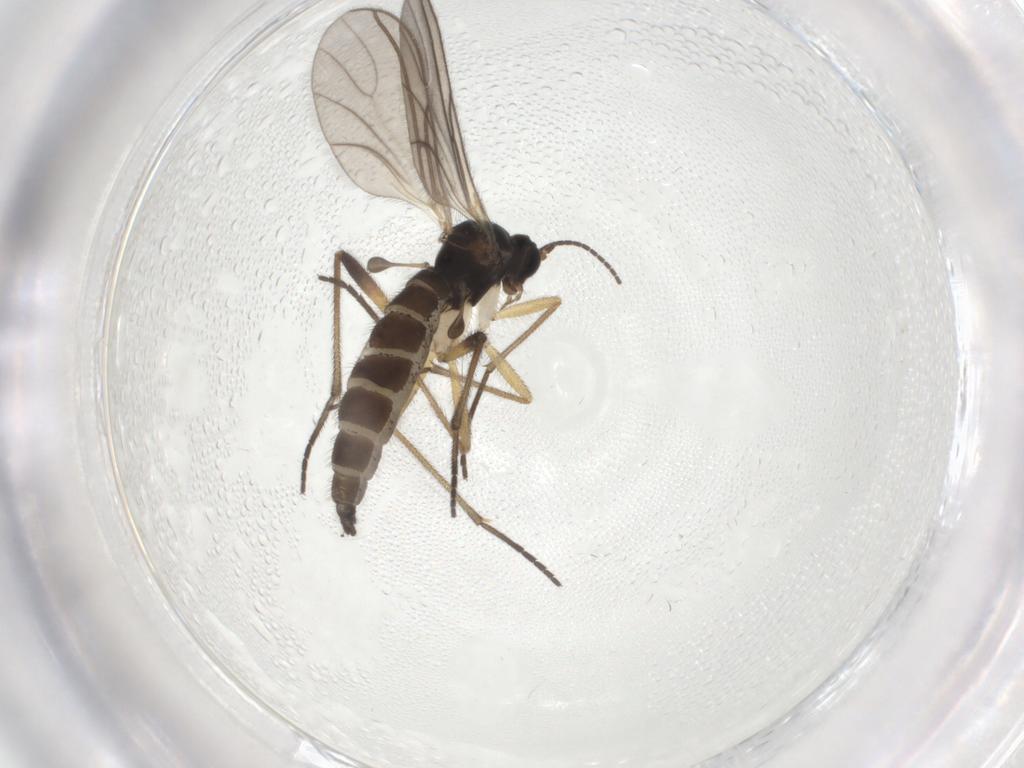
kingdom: Animalia
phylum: Arthropoda
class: Insecta
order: Diptera
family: Sciaridae
